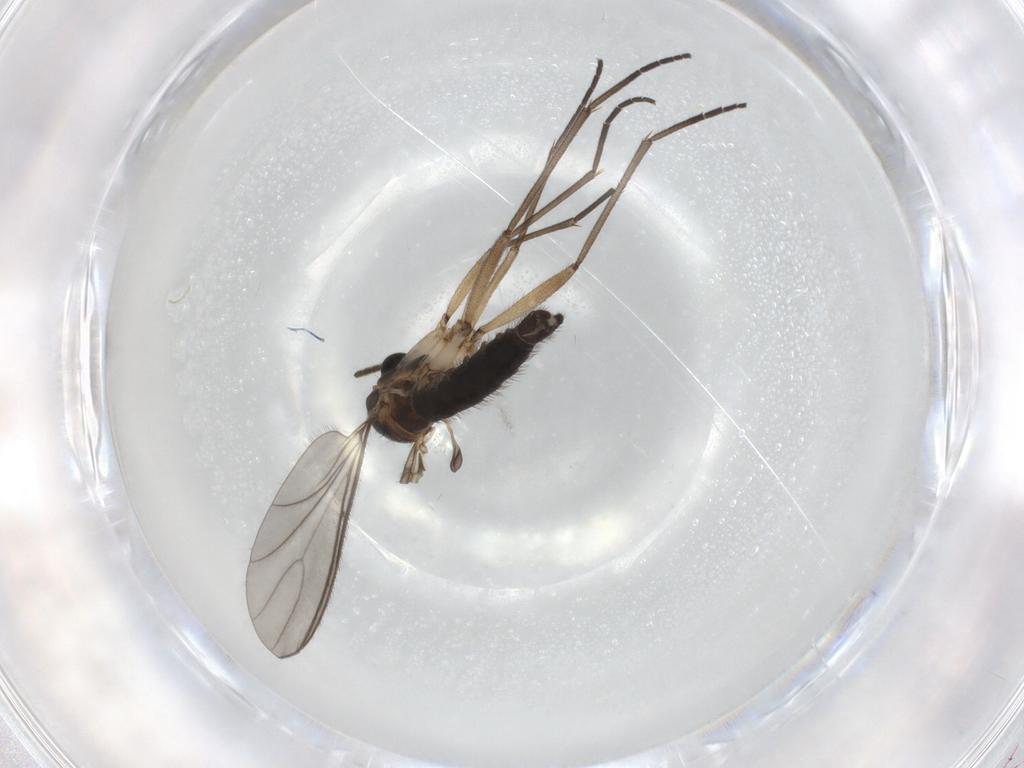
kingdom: Animalia
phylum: Arthropoda
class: Insecta
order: Diptera
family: Sciaridae
